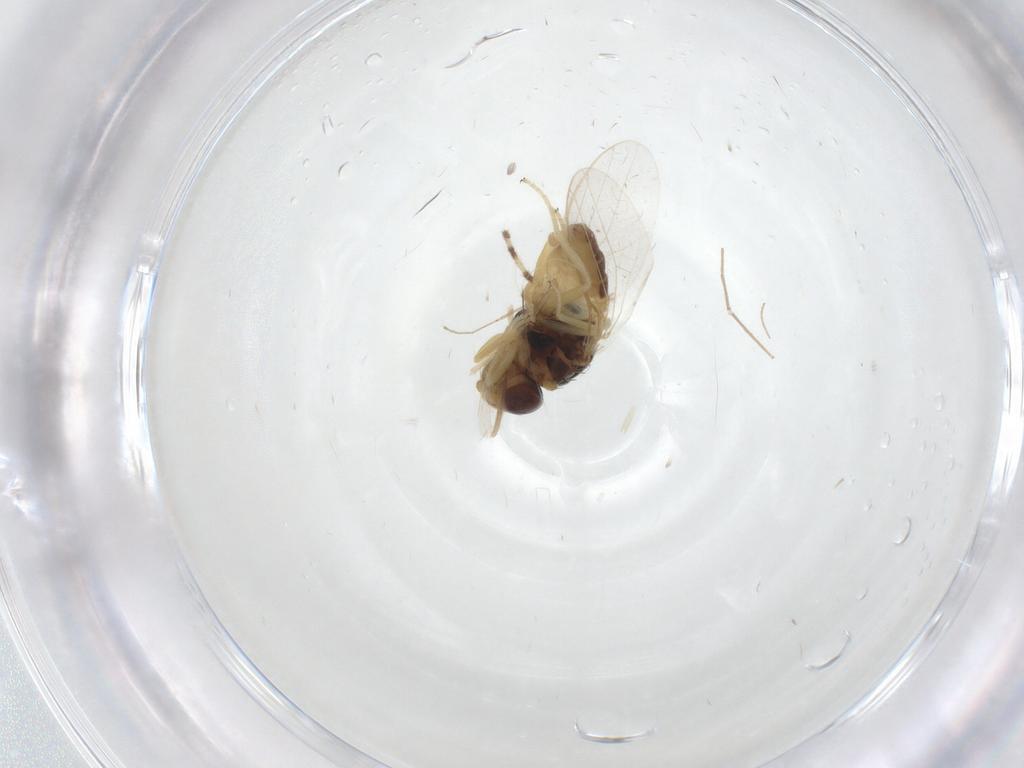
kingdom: Animalia
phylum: Arthropoda
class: Insecta
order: Diptera
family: Chloropidae
